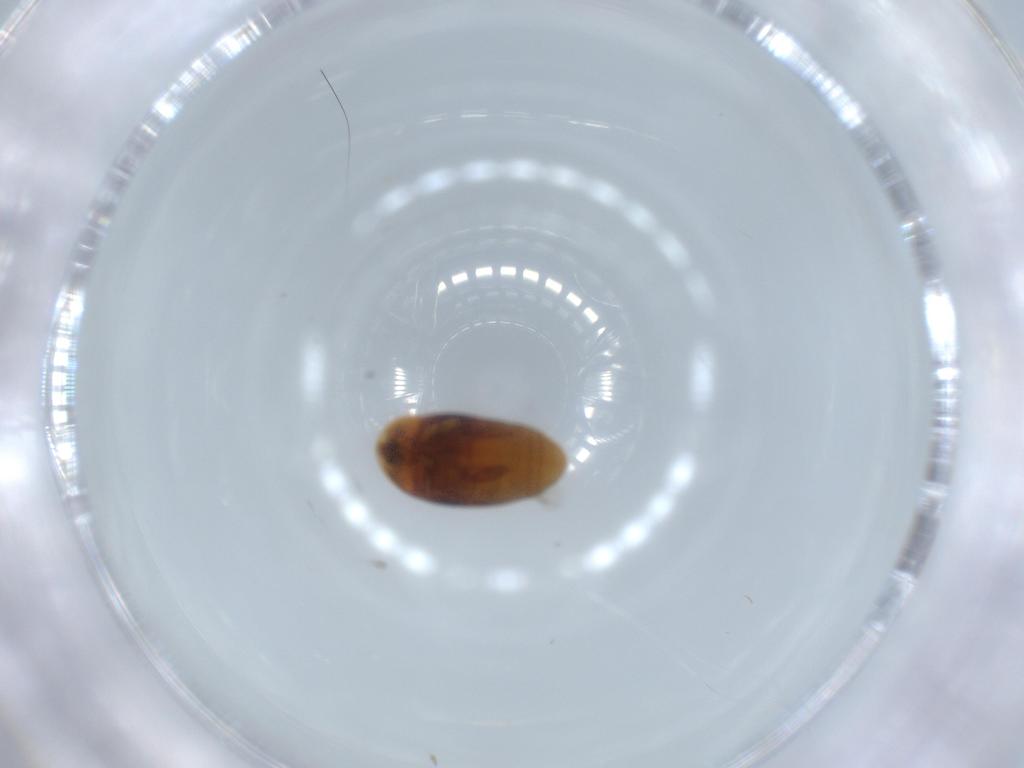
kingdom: Animalia
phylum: Arthropoda
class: Insecta
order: Coleoptera
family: Corylophidae
